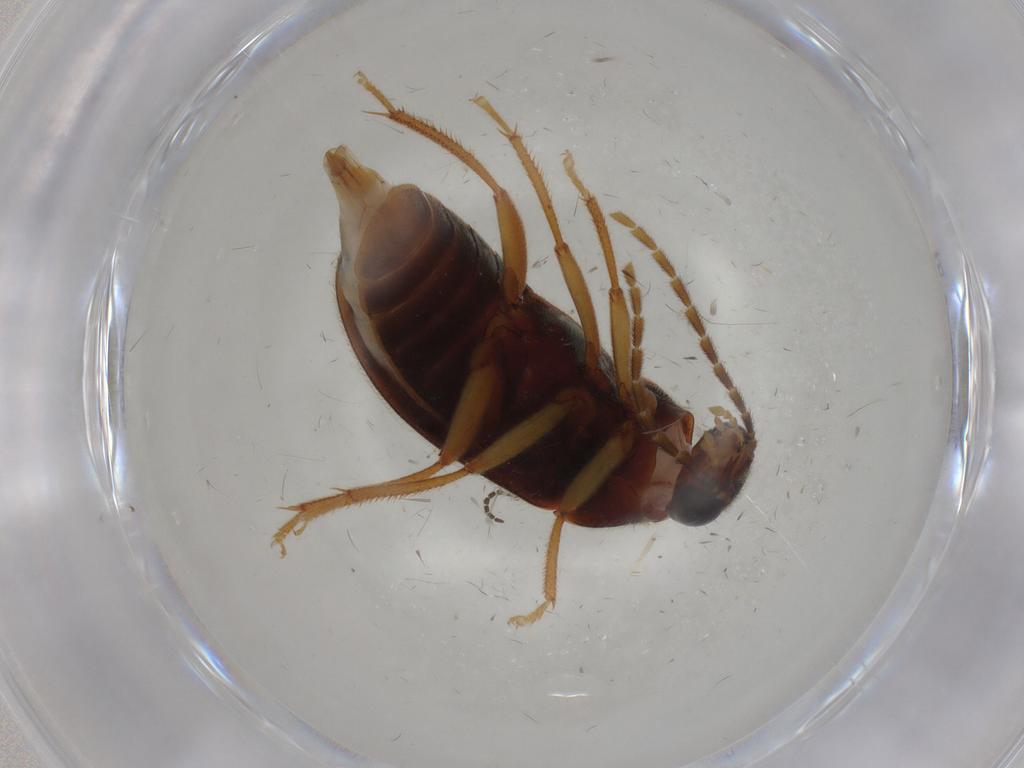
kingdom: Animalia
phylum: Arthropoda
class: Insecta
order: Coleoptera
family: Ptilodactylidae
